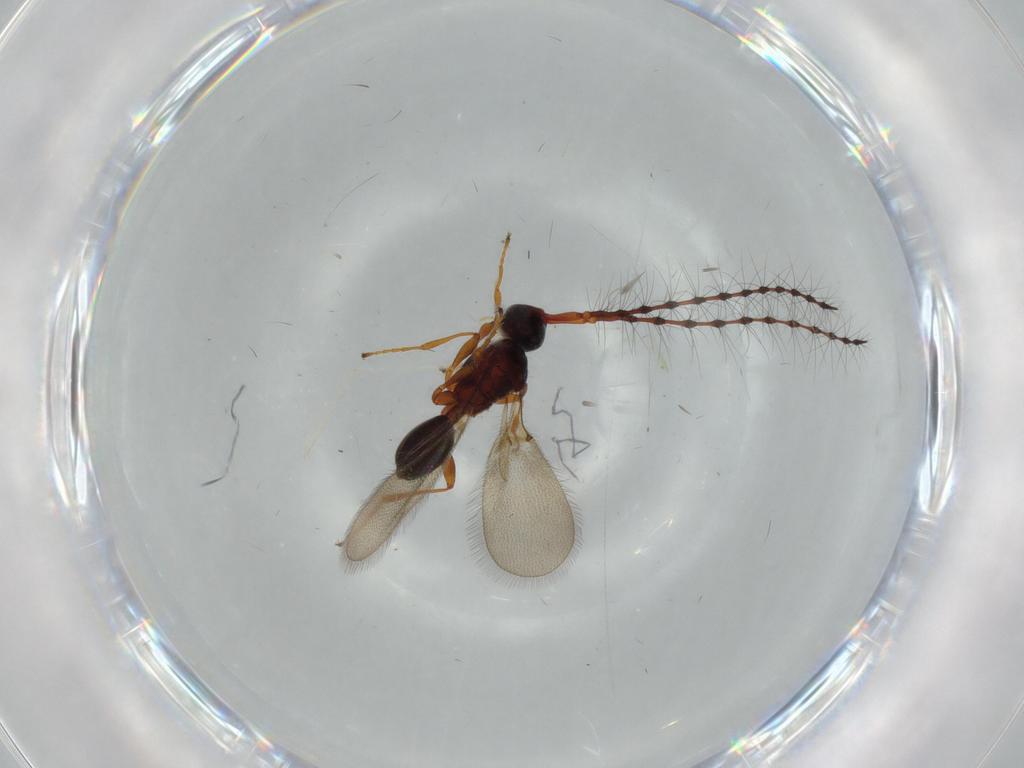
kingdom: Animalia
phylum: Arthropoda
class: Insecta
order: Hymenoptera
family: Diapriidae
